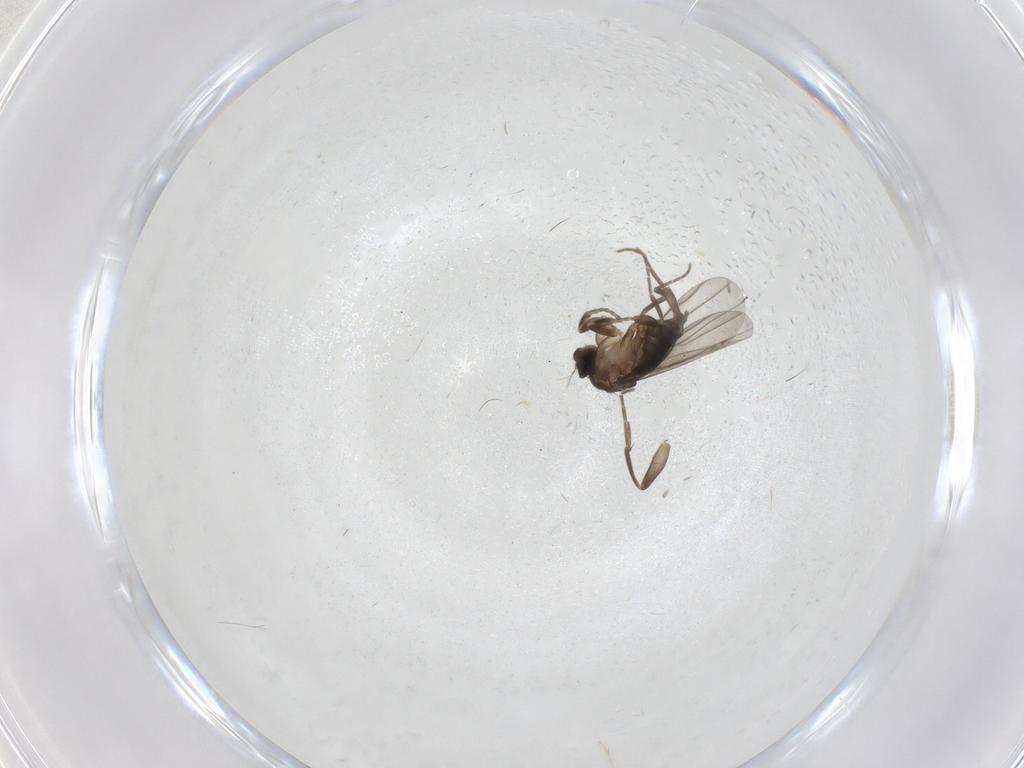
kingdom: Animalia
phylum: Arthropoda
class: Insecta
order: Diptera
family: Phoridae
